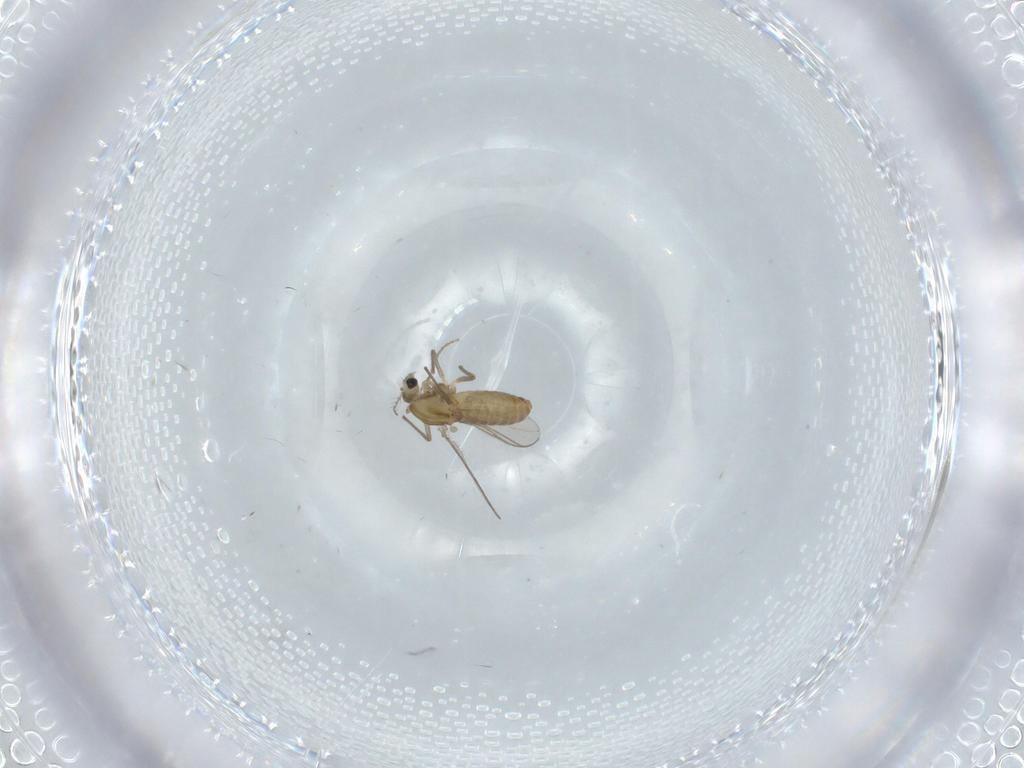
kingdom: Animalia
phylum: Arthropoda
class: Insecta
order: Diptera
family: Chironomidae
